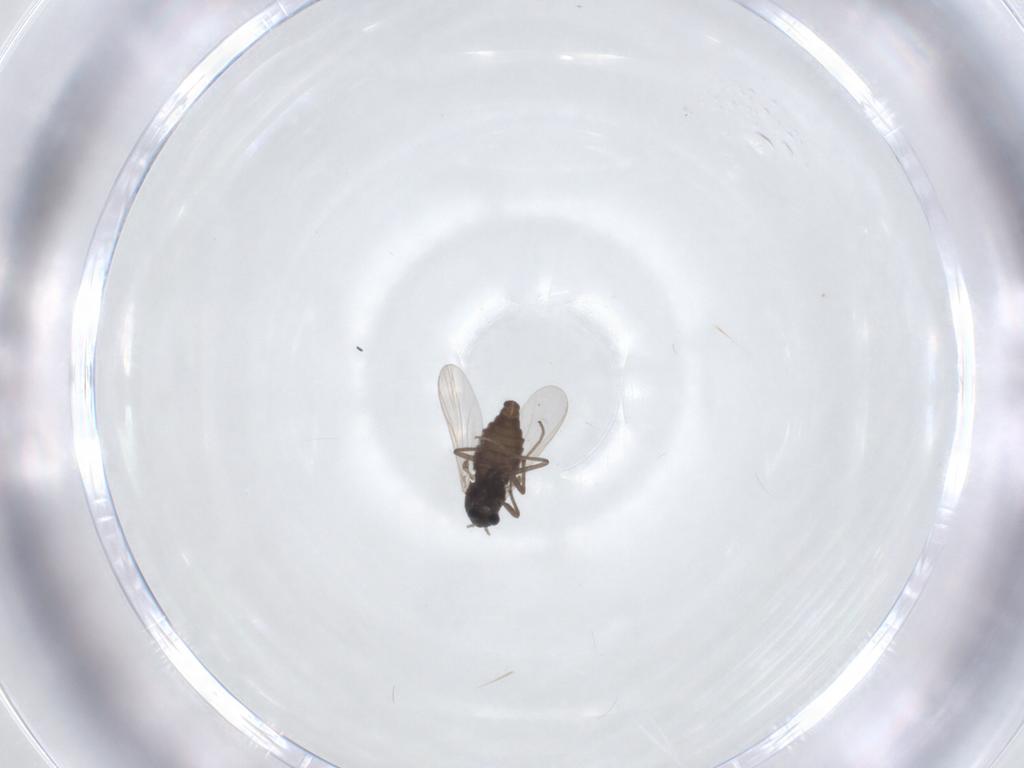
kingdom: Animalia
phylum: Arthropoda
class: Insecta
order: Diptera
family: Chironomidae
